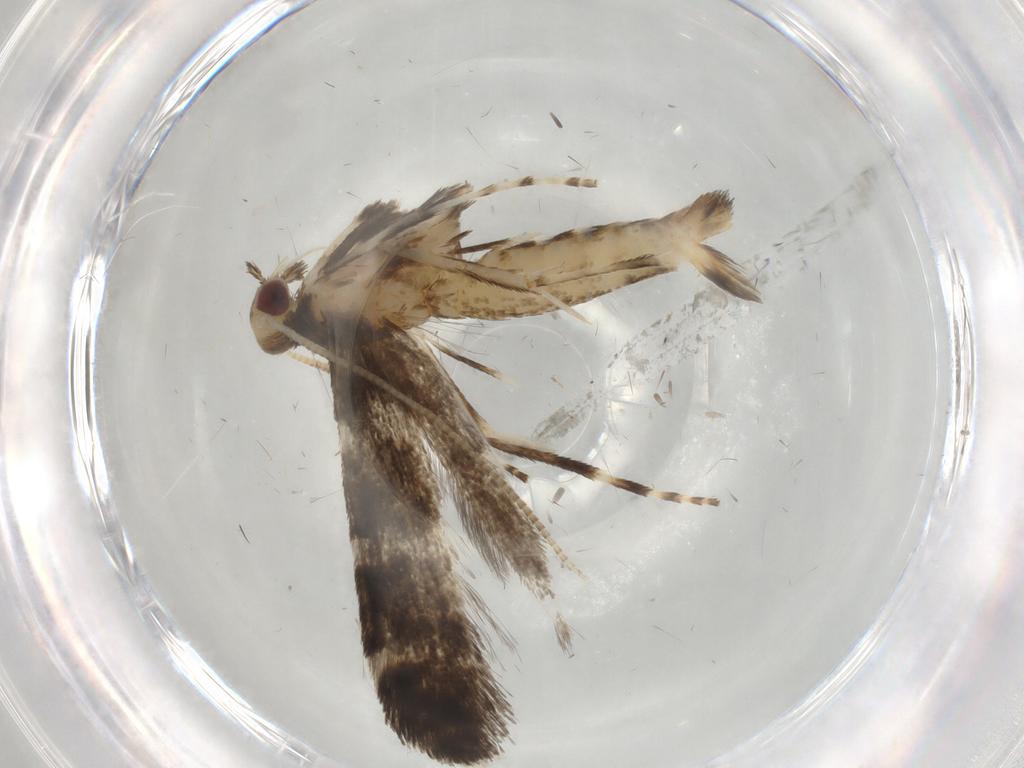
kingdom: Animalia
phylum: Arthropoda
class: Insecta
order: Lepidoptera
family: Gracillariidae
